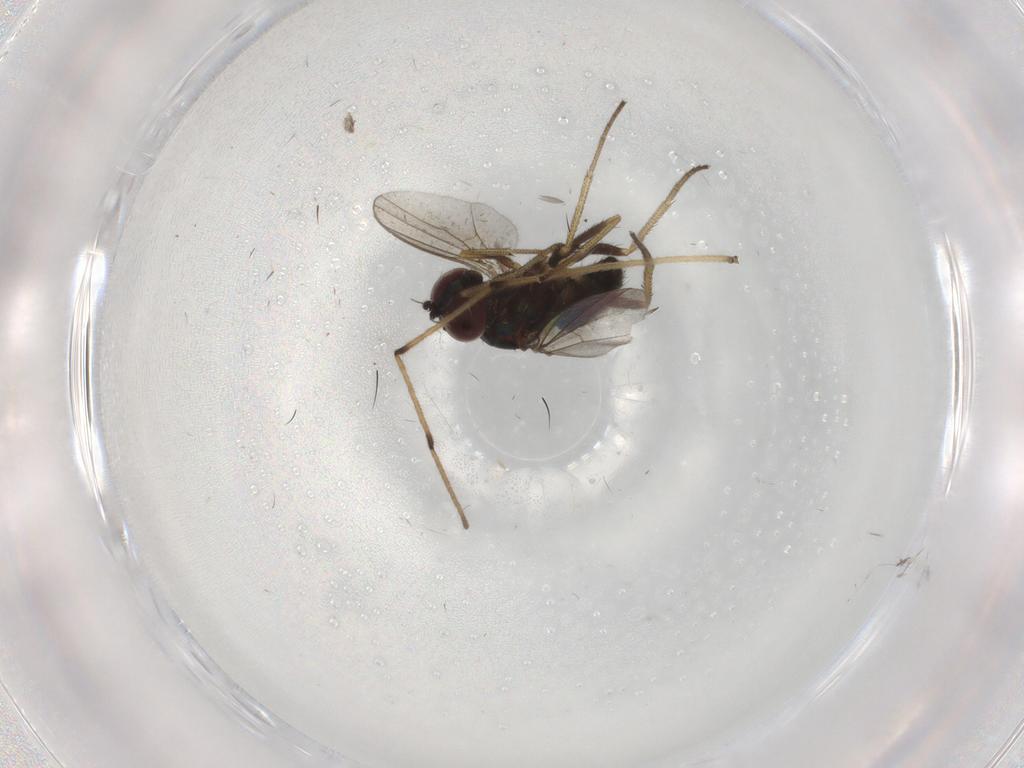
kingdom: Animalia
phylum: Arthropoda
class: Insecta
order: Diptera
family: Chironomidae
